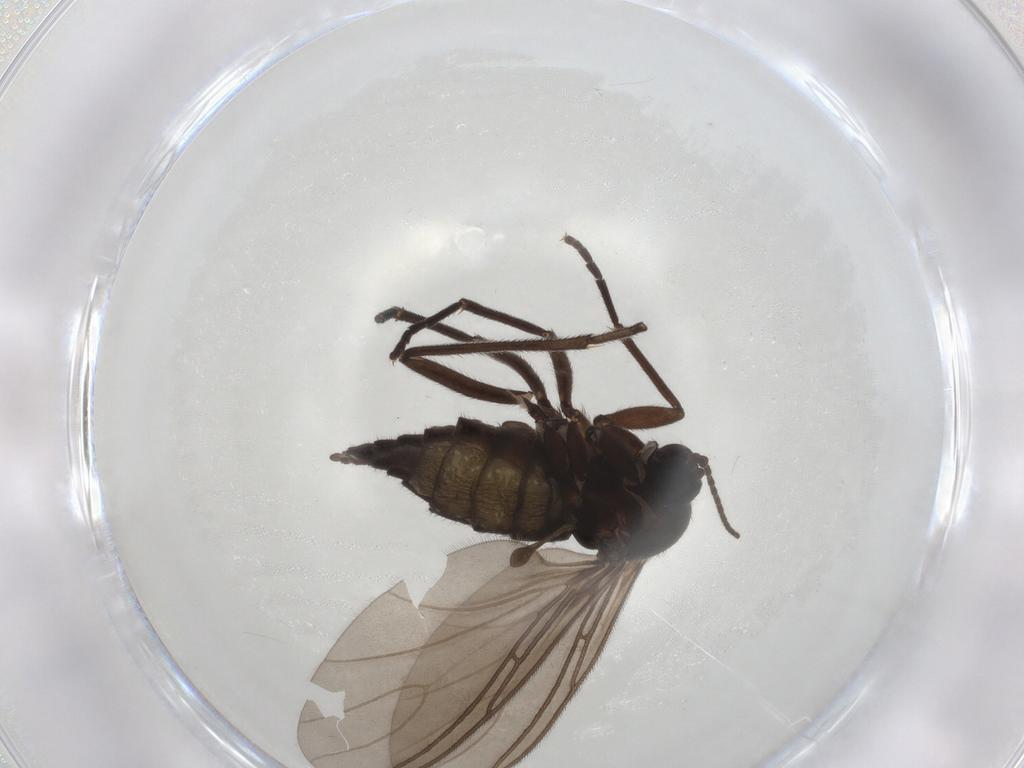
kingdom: Animalia
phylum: Arthropoda
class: Insecta
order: Diptera
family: Sciaridae
